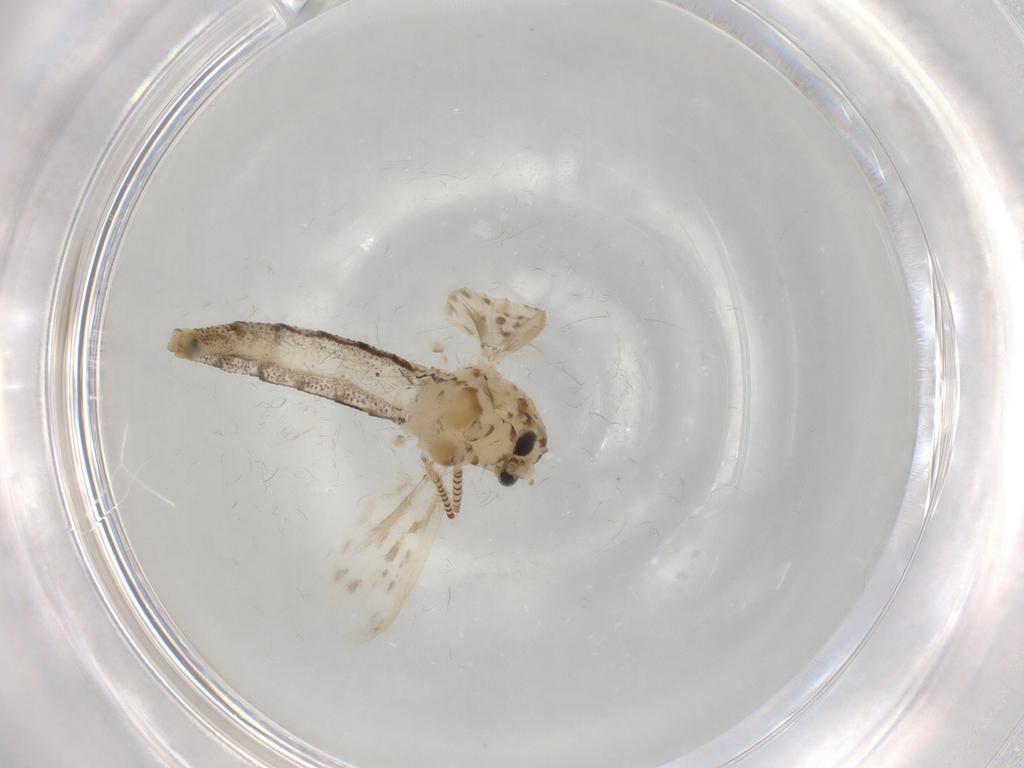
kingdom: Animalia
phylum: Arthropoda
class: Insecta
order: Diptera
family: Chaoboridae
